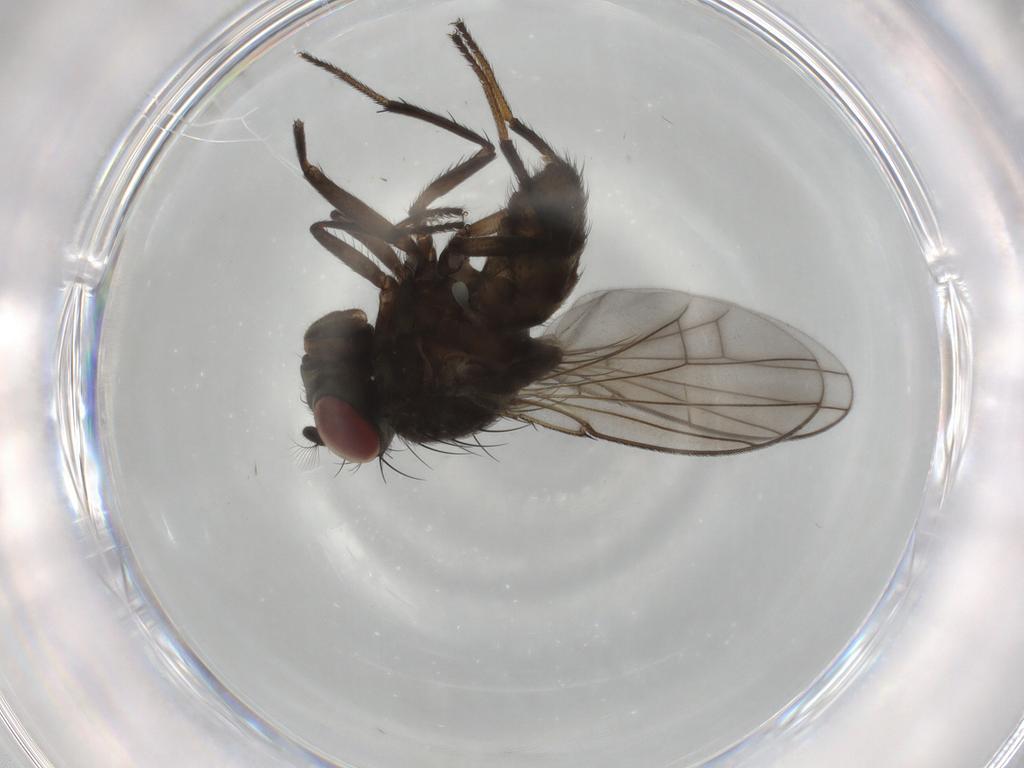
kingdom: Animalia
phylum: Arthropoda
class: Insecta
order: Diptera
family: Ephydridae
